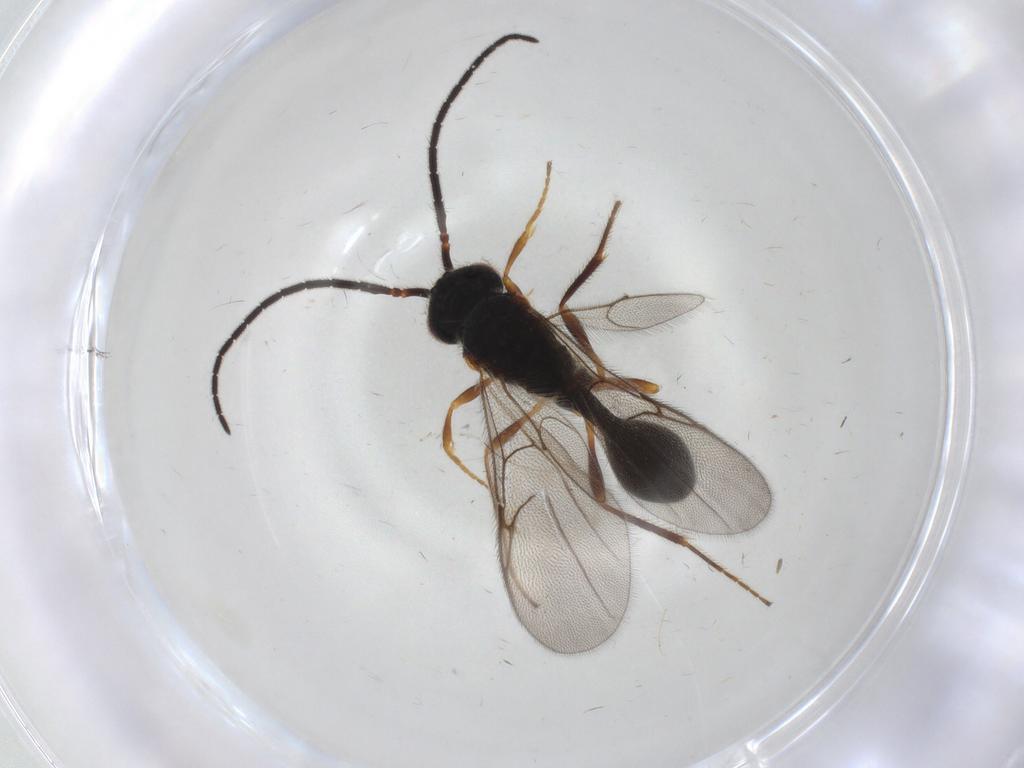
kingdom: Animalia
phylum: Arthropoda
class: Insecta
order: Hymenoptera
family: Diapriidae
